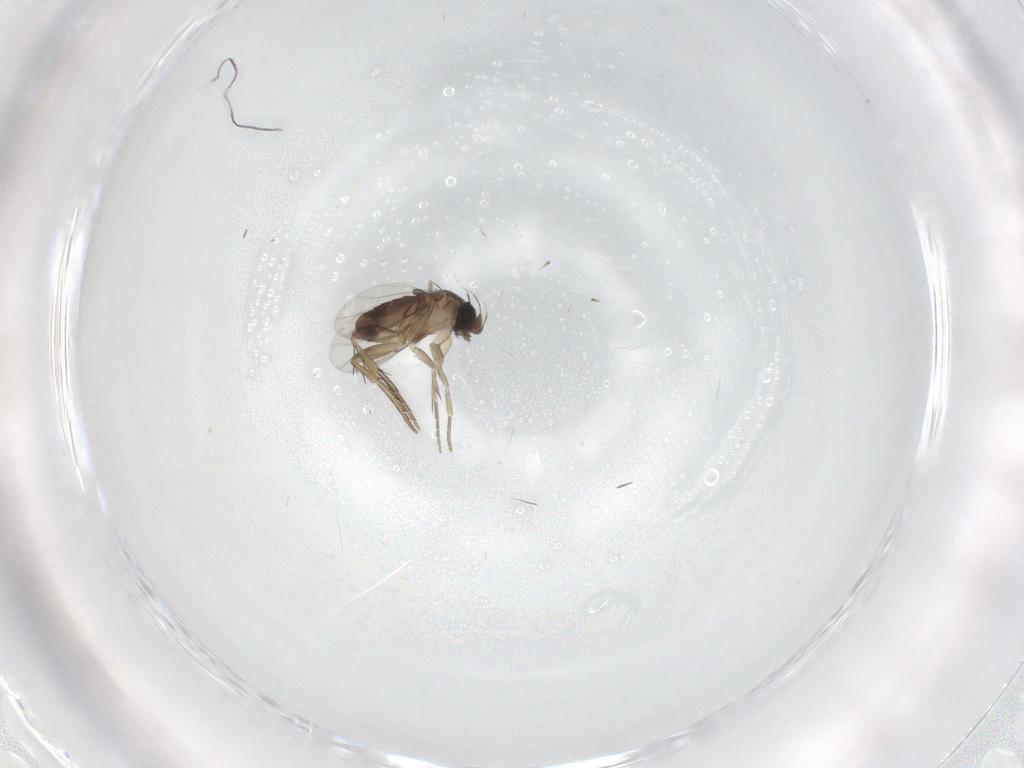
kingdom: Animalia
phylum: Arthropoda
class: Insecta
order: Diptera
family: Phoridae
